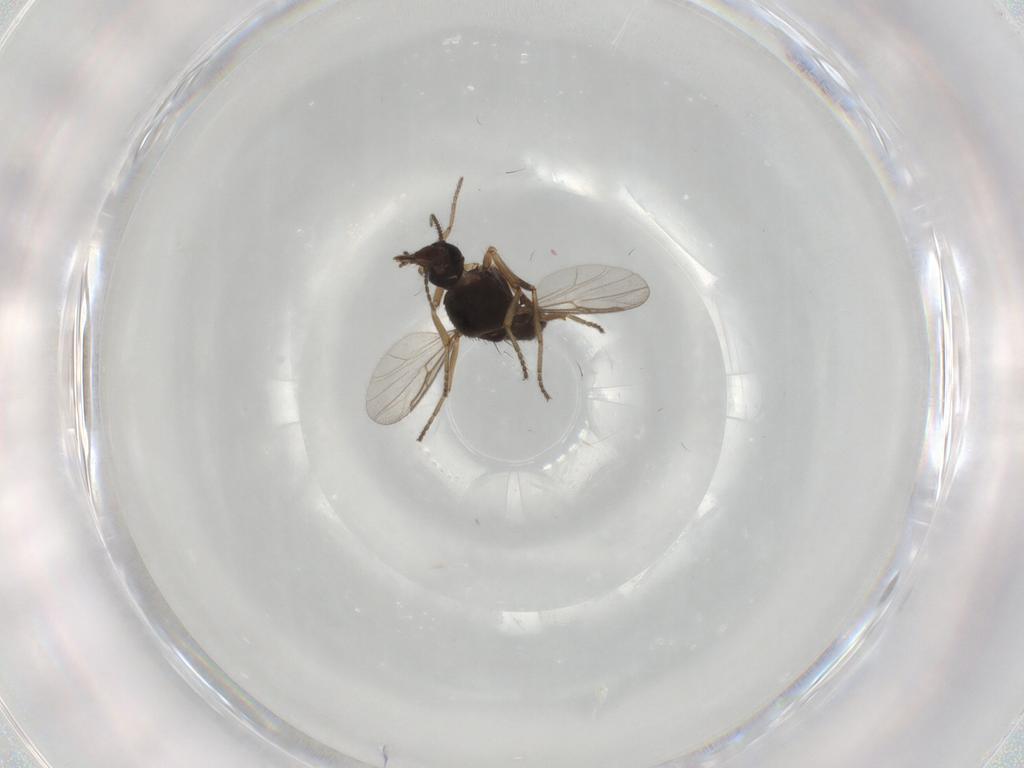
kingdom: Animalia
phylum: Arthropoda
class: Insecta
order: Diptera
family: Ceratopogonidae
